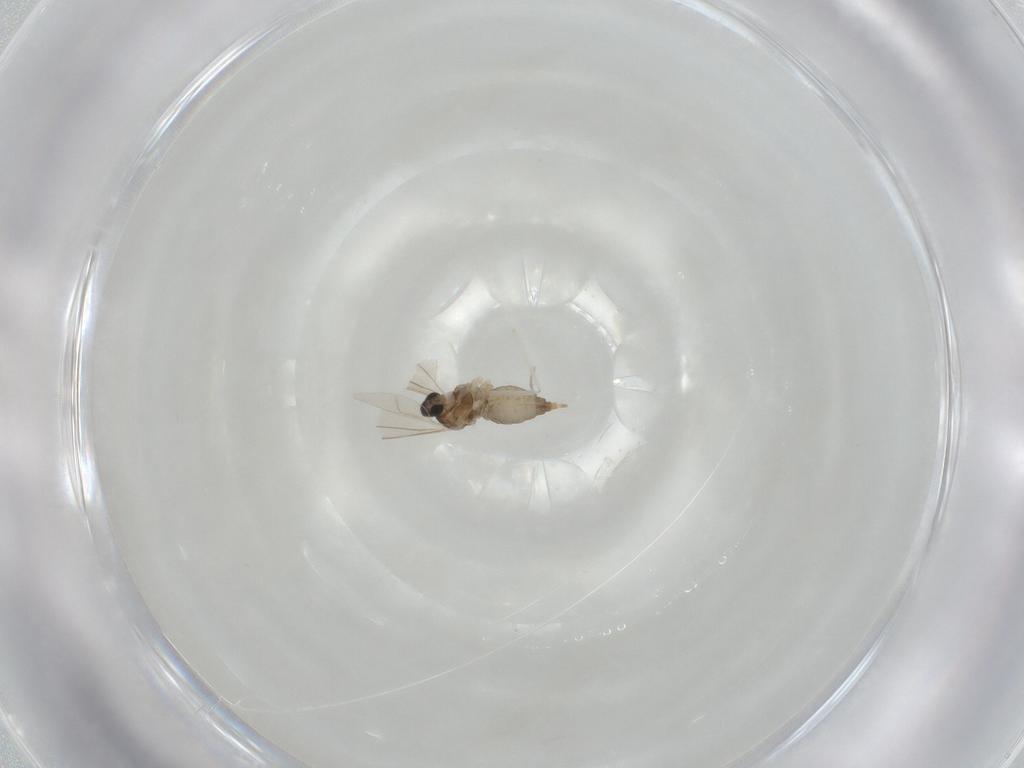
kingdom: Animalia
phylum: Arthropoda
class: Insecta
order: Diptera
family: Cecidomyiidae
